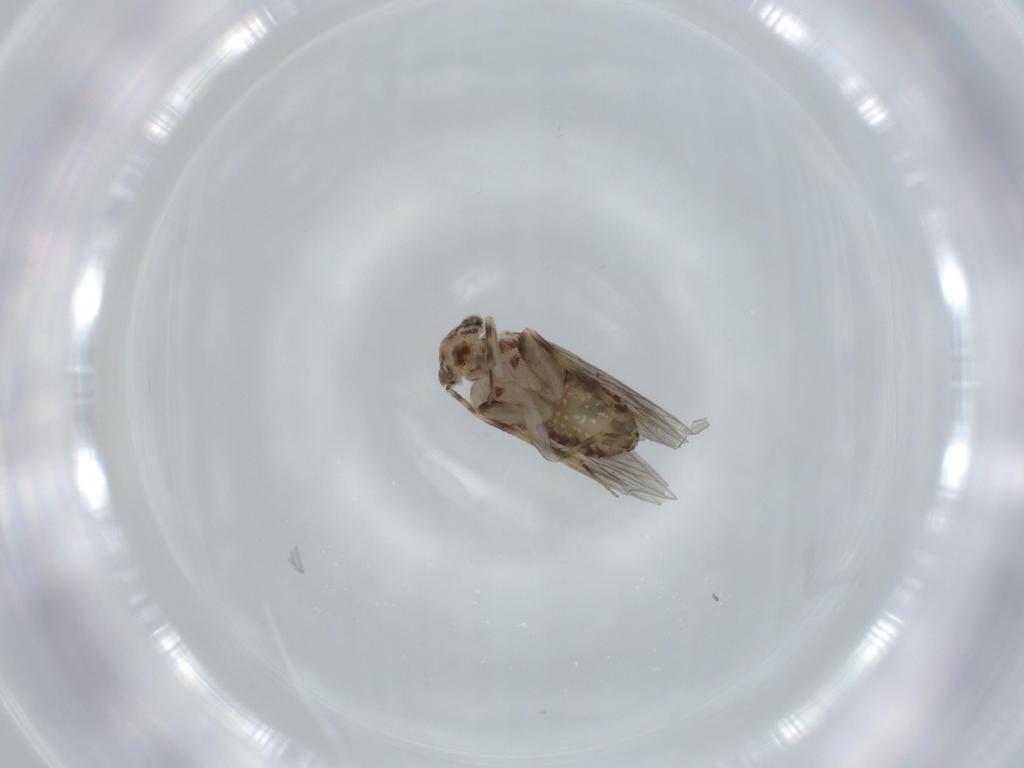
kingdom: Animalia
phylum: Arthropoda
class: Insecta
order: Psocodea
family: Lepidopsocidae
